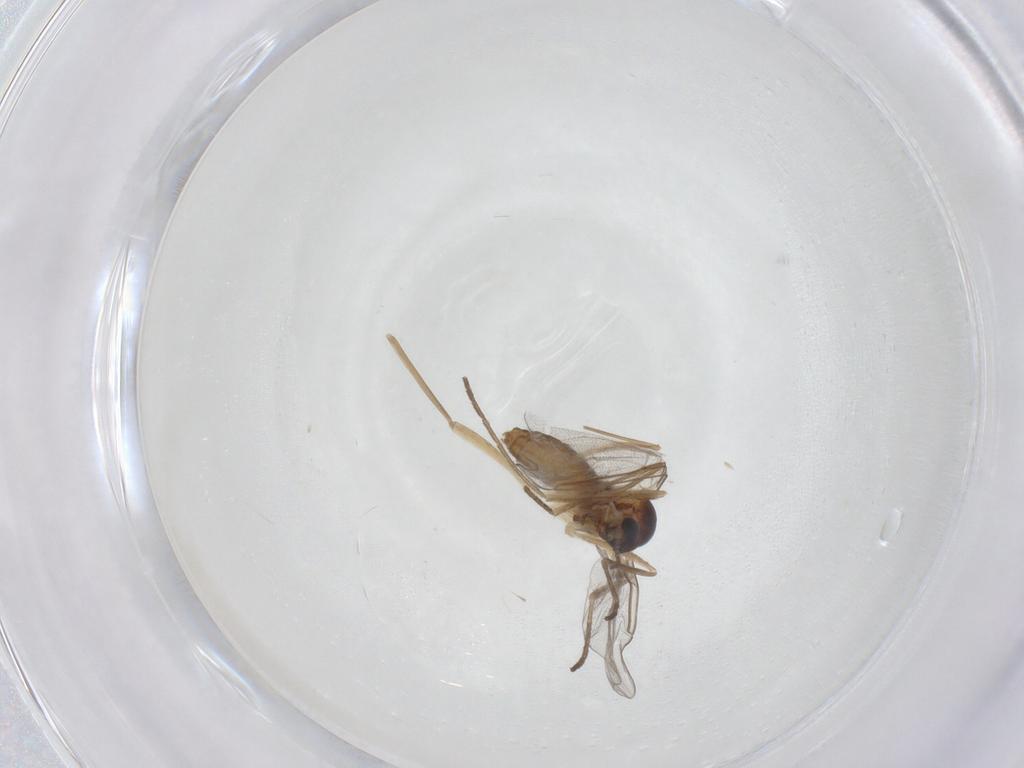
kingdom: Animalia
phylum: Arthropoda
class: Insecta
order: Diptera
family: Cecidomyiidae
